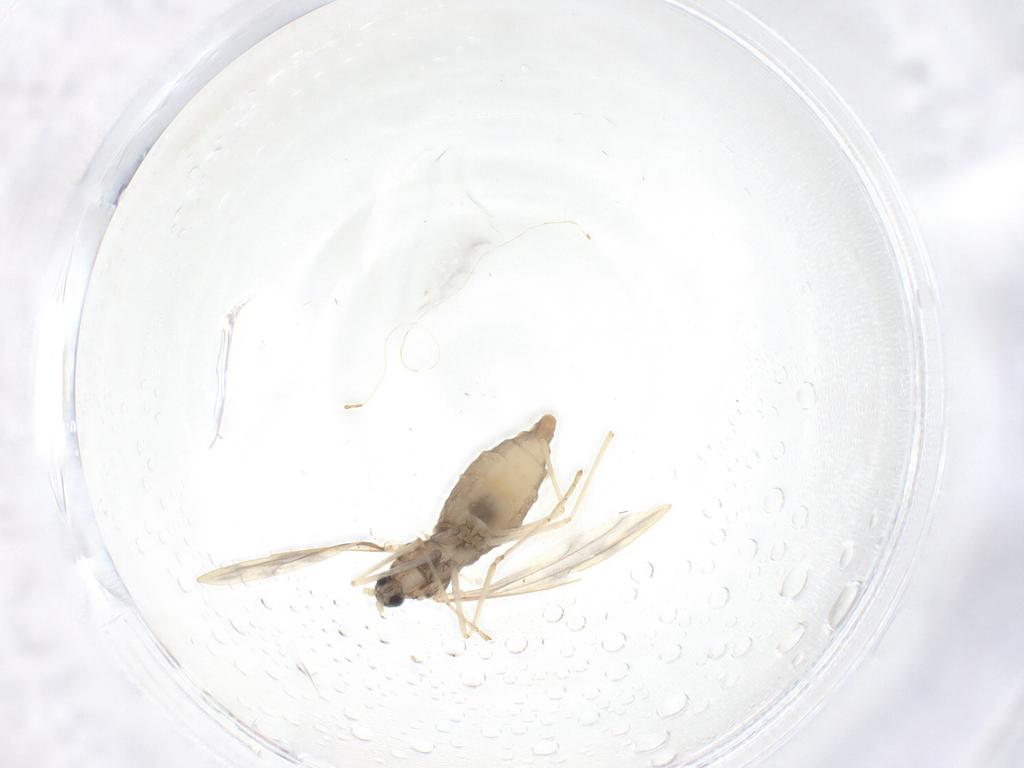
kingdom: Animalia
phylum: Arthropoda
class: Insecta
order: Diptera
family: Cecidomyiidae
